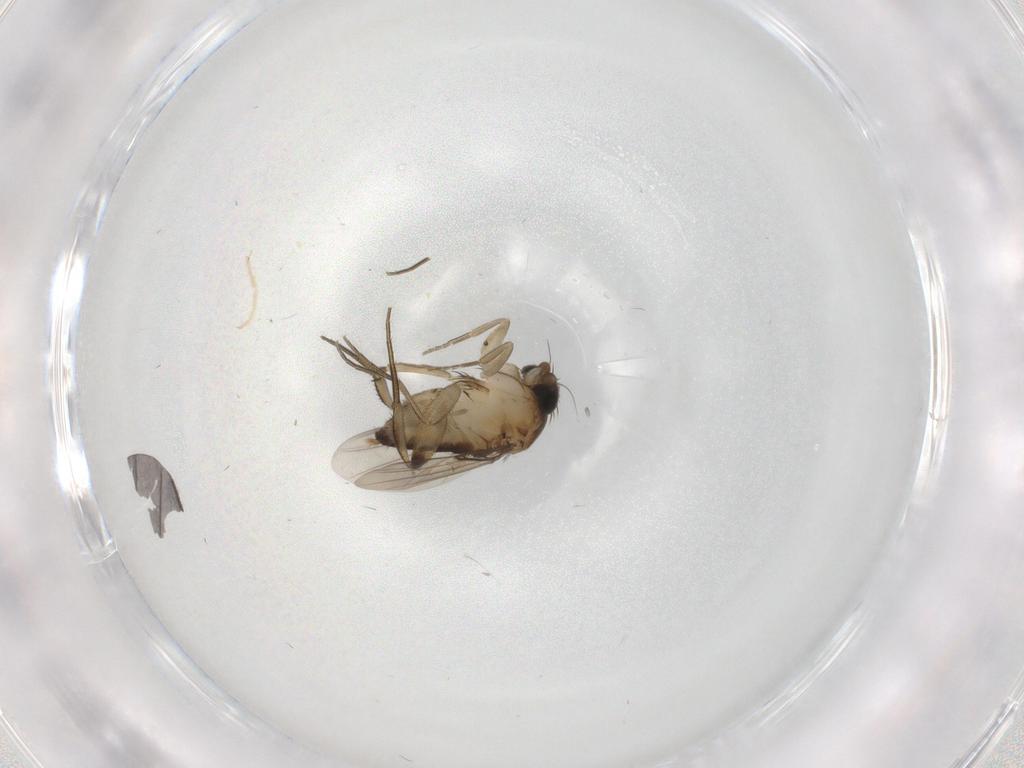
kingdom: Animalia
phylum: Arthropoda
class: Insecta
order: Diptera
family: Phoridae
